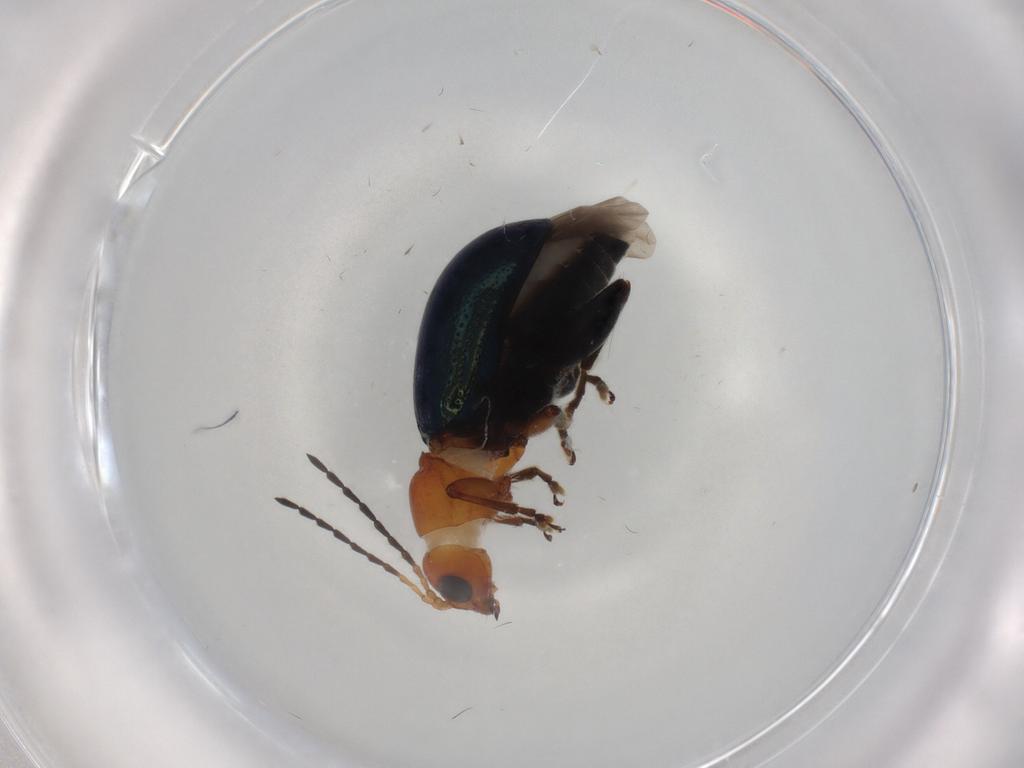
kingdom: Animalia
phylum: Arthropoda
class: Insecta
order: Coleoptera
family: Chrysomelidae
